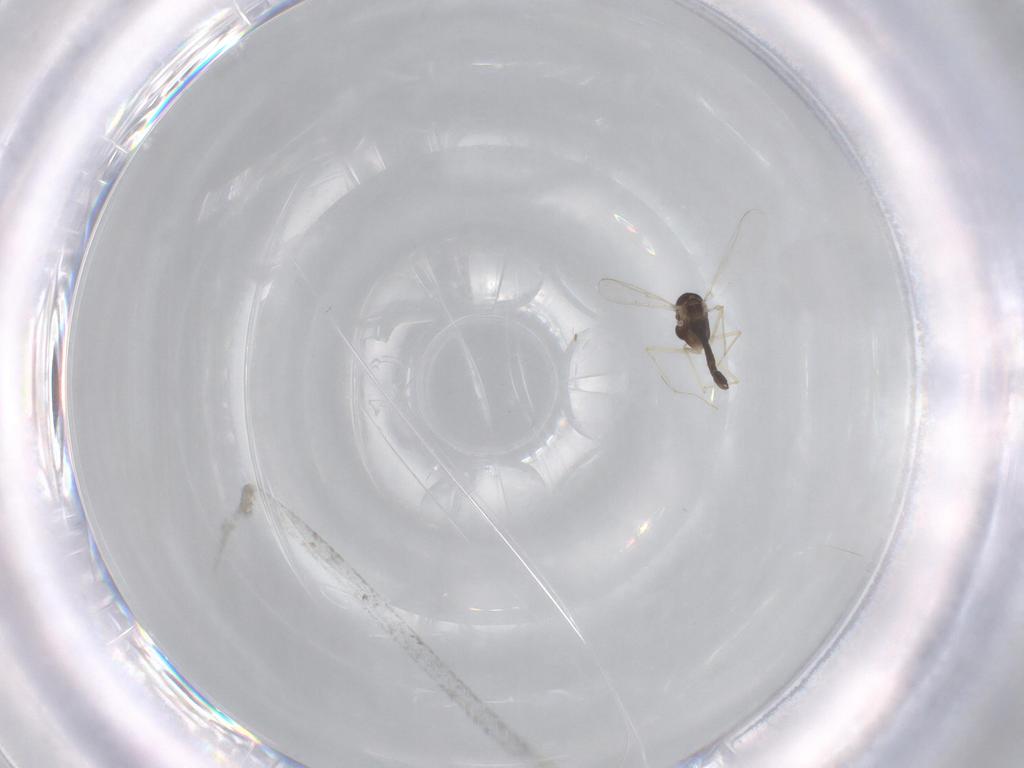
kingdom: Animalia
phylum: Arthropoda
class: Insecta
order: Diptera
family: Chironomidae
